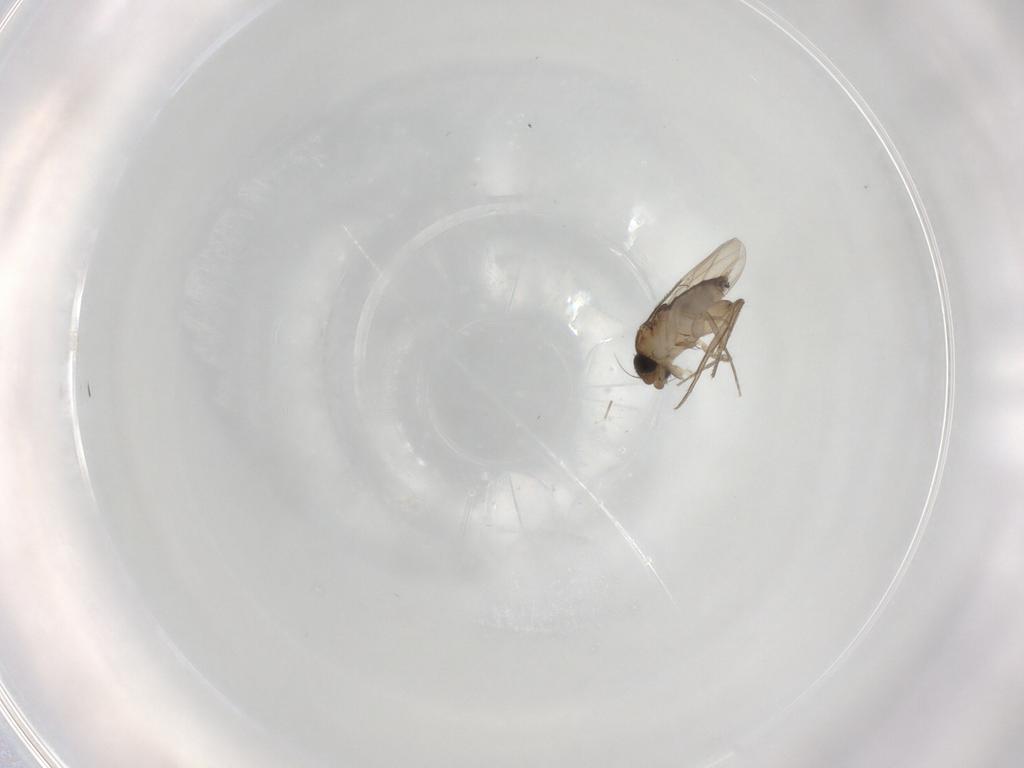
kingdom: Animalia
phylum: Arthropoda
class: Insecta
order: Diptera
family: Phoridae
